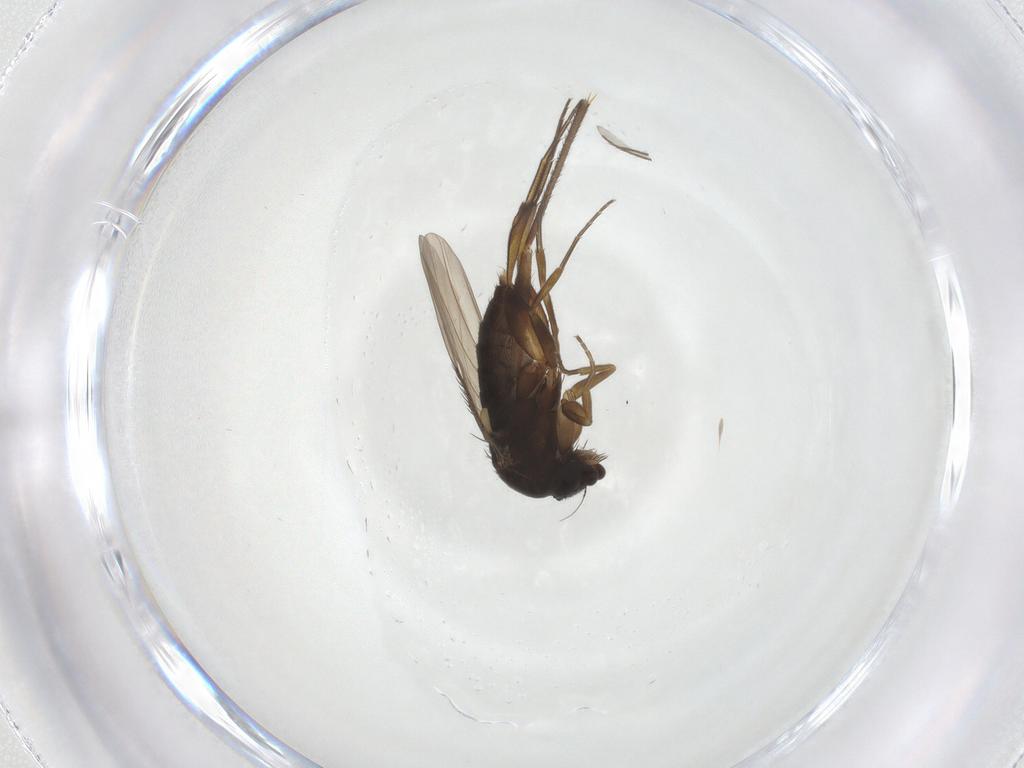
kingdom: Animalia
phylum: Arthropoda
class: Insecta
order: Diptera
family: Phoridae
